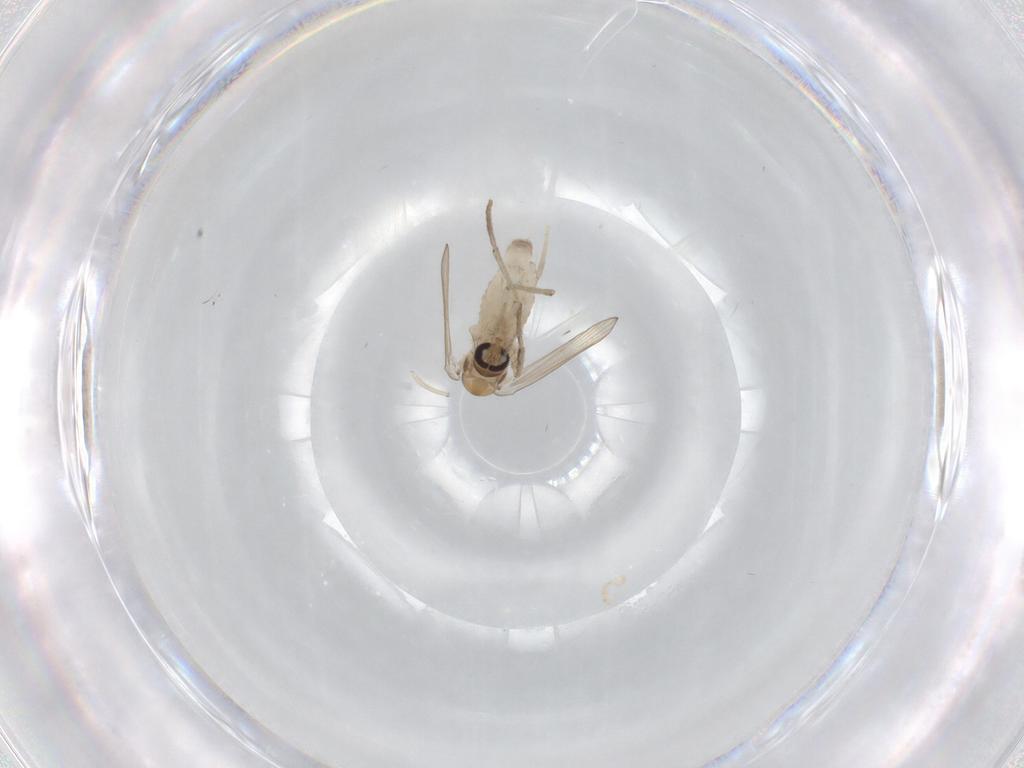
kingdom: Animalia
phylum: Arthropoda
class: Insecta
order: Diptera
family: Psychodidae
